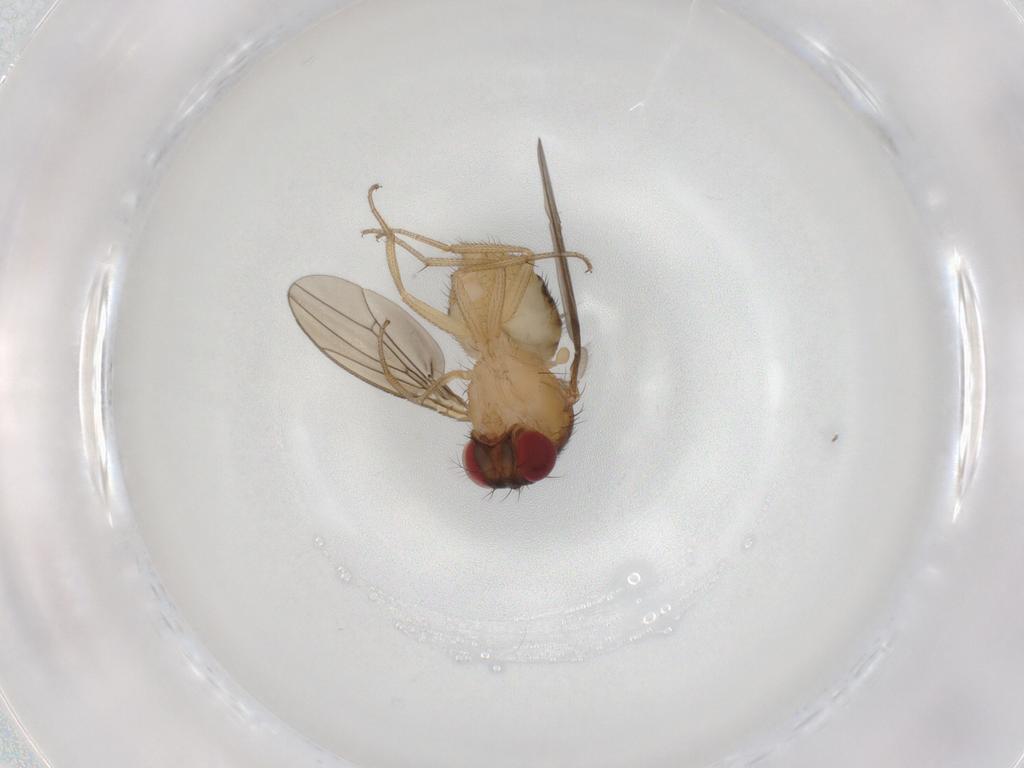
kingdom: Animalia
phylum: Arthropoda
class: Insecta
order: Diptera
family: Drosophilidae
